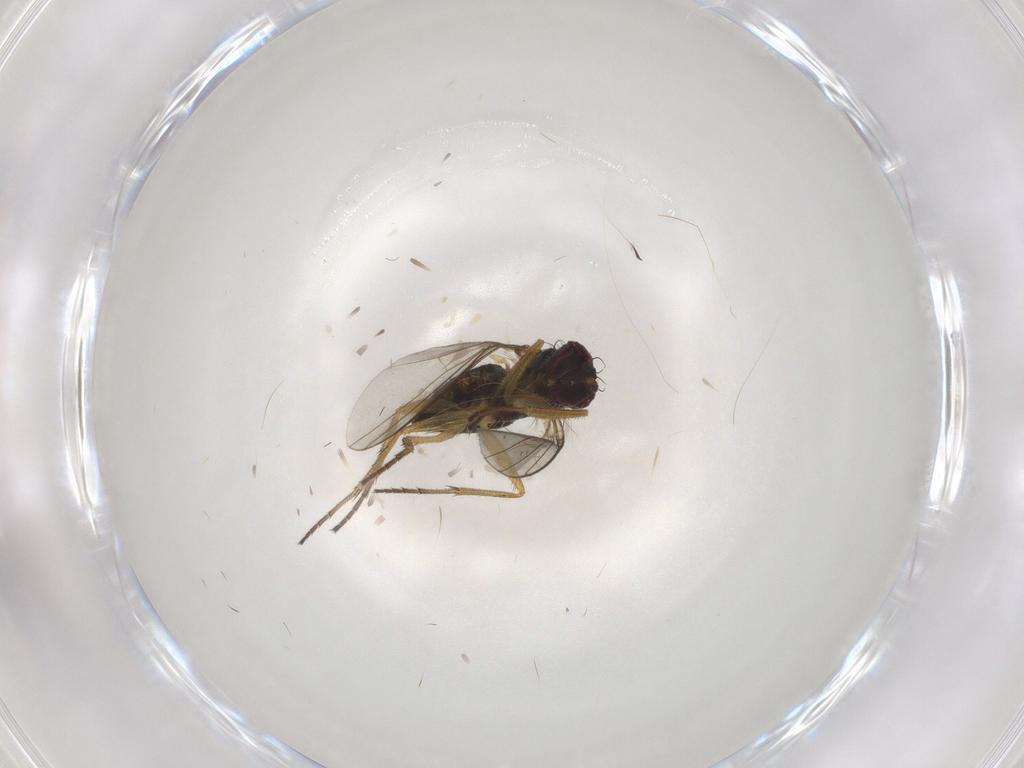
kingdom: Animalia
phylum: Arthropoda
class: Insecta
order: Diptera
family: Dolichopodidae
